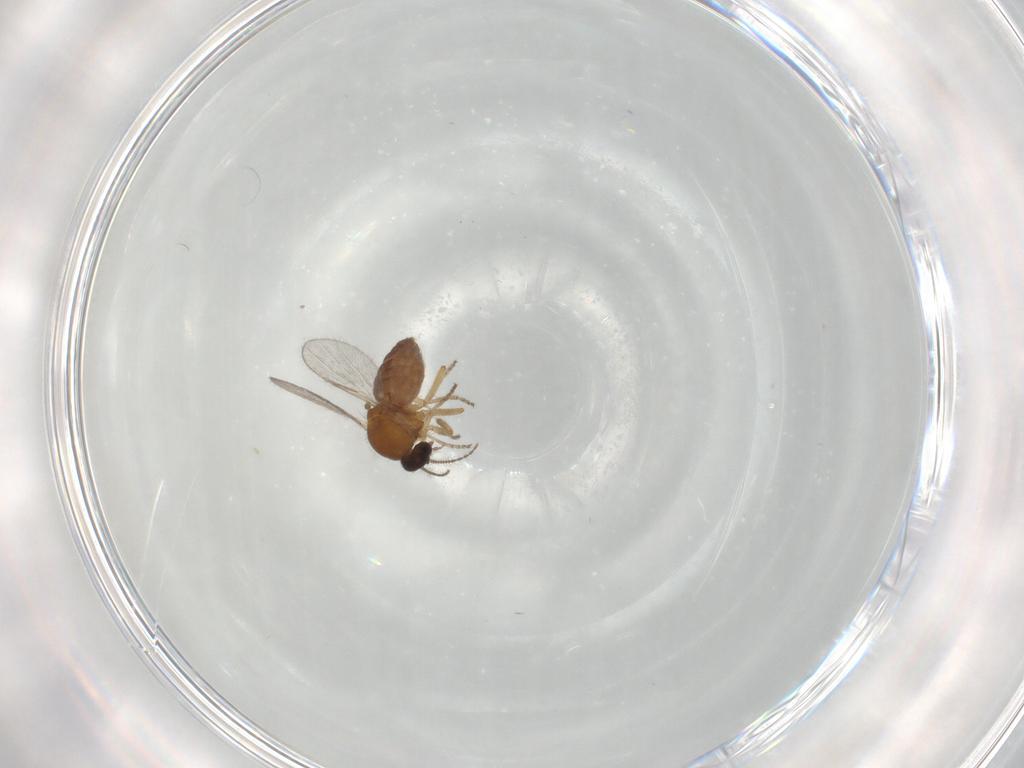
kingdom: Animalia
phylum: Arthropoda
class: Insecta
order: Diptera
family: Ceratopogonidae
